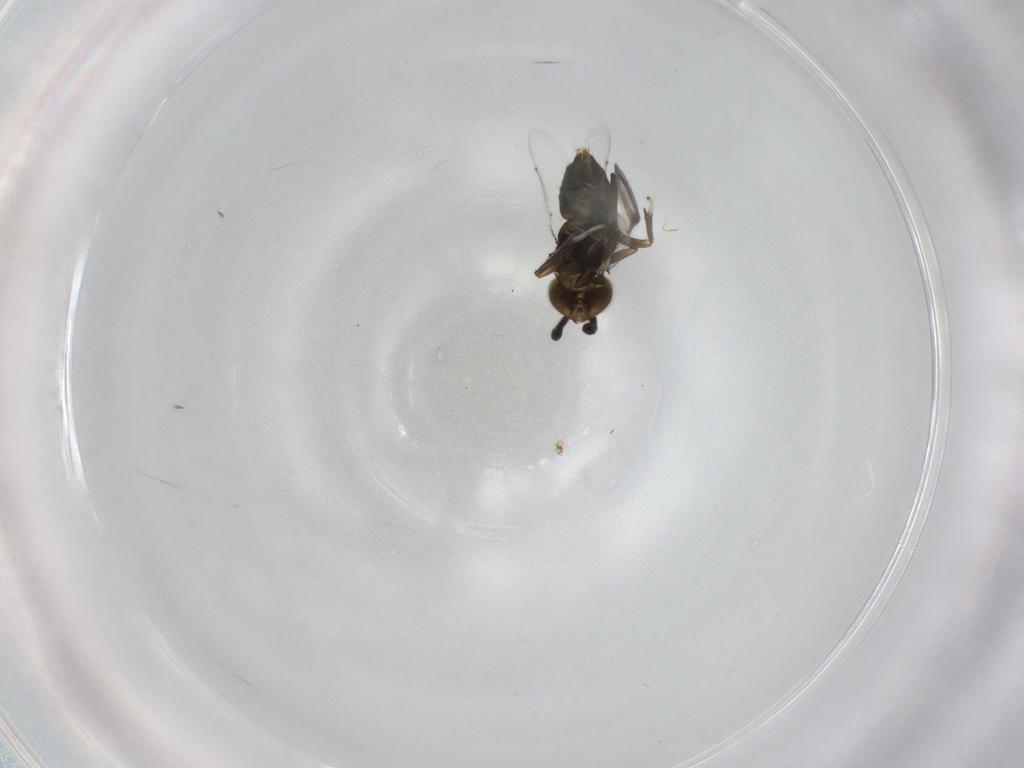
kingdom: Animalia
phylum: Arthropoda
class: Insecta
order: Hymenoptera
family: Aphelinidae
